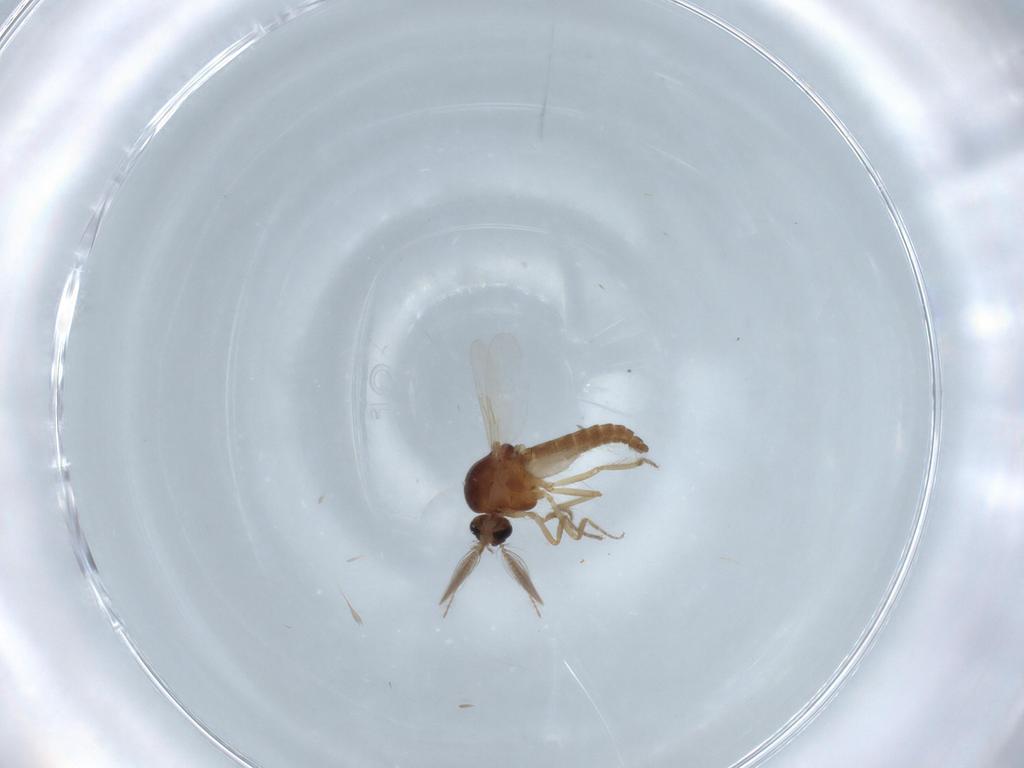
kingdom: Animalia
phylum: Arthropoda
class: Insecta
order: Diptera
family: Ceratopogonidae
